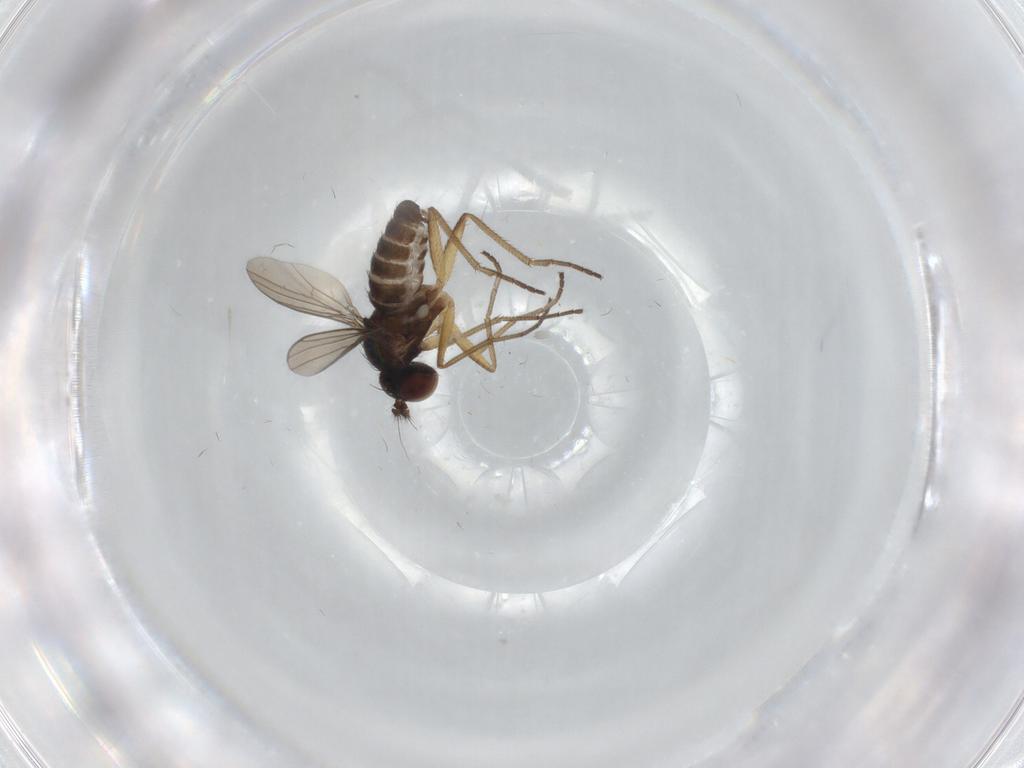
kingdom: Animalia
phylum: Arthropoda
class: Insecta
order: Diptera
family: Dolichopodidae
